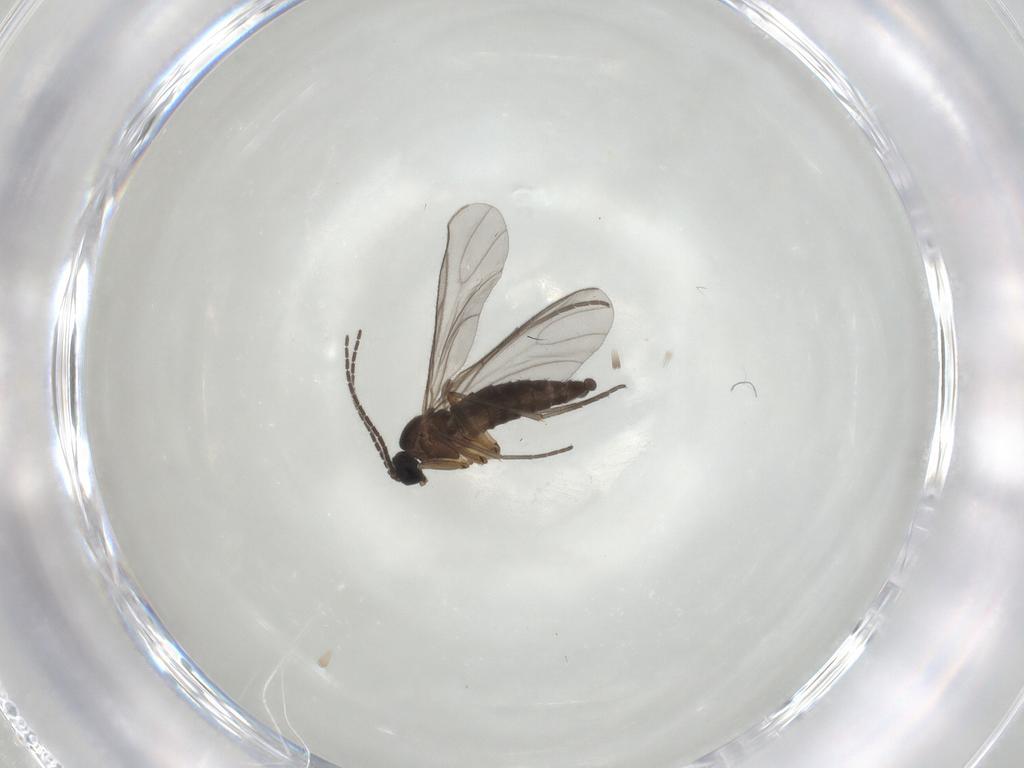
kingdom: Animalia
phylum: Arthropoda
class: Insecta
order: Diptera
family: Sciaridae
